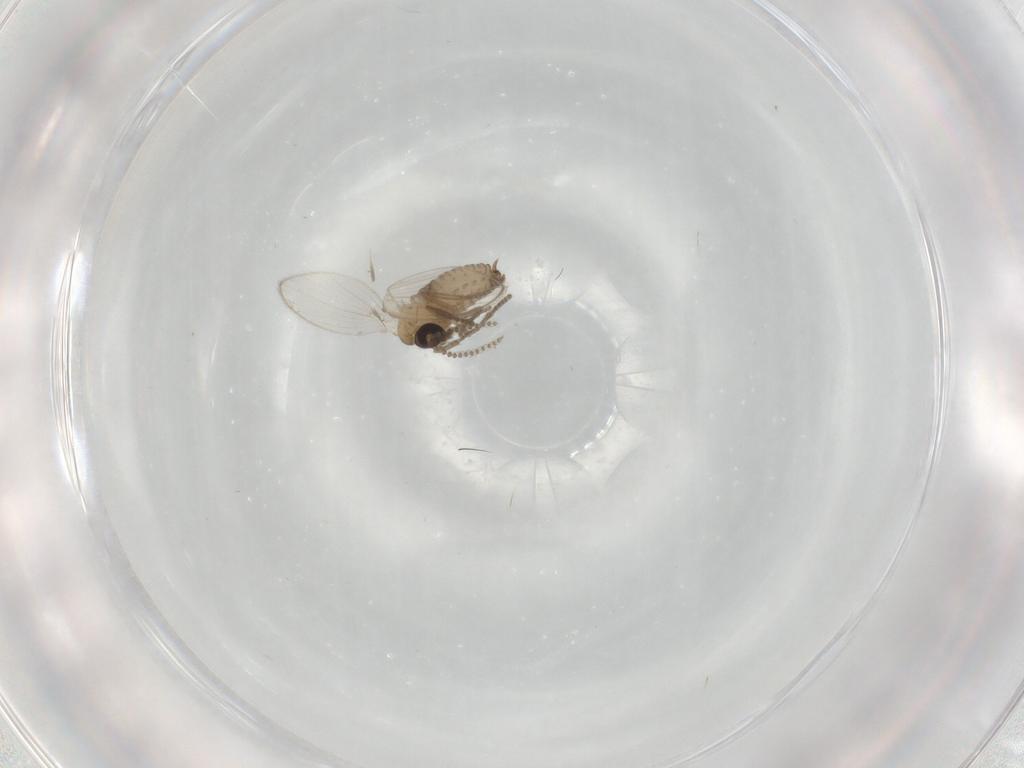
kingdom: Animalia
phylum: Arthropoda
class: Insecta
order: Diptera
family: Psychodidae
